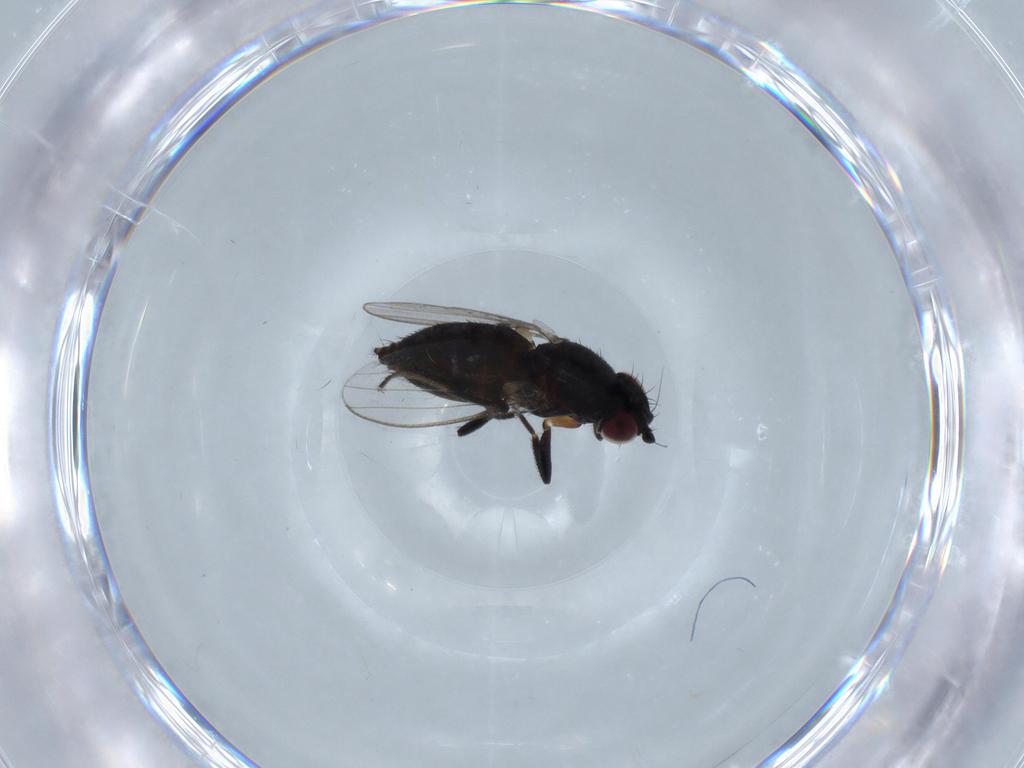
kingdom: Animalia
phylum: Arthropoda
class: Insecta
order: Diptera
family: Milichiidae
